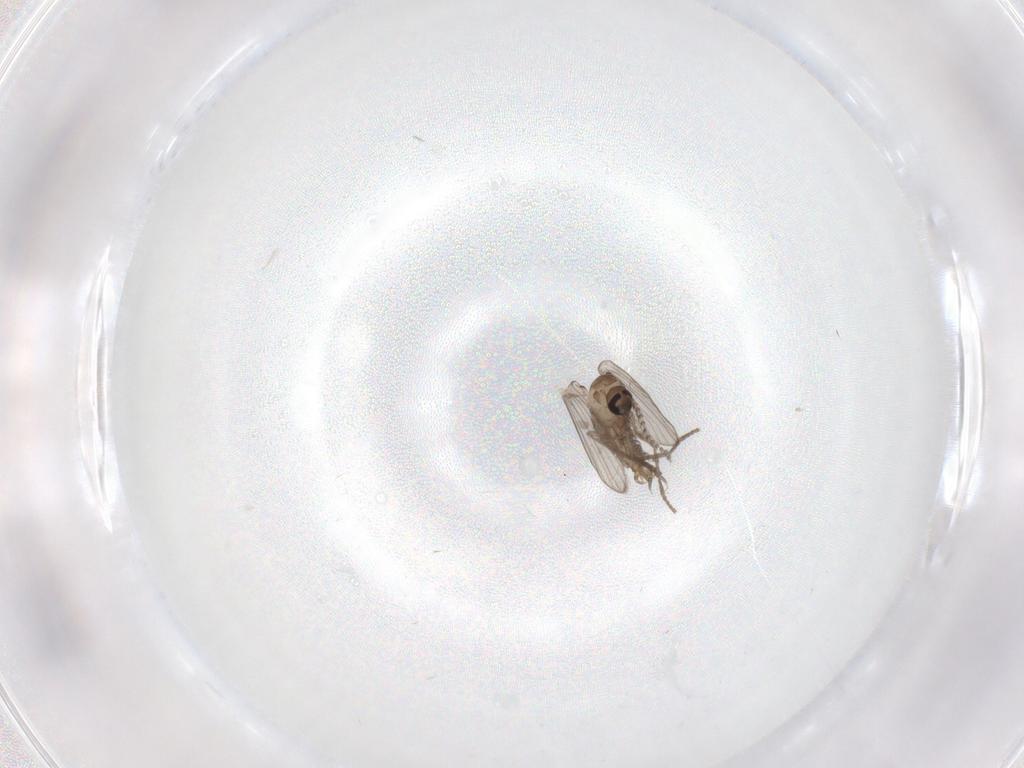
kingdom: Animalia
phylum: Arthropoda
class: Insecta
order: Diptera
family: Psychodidae
